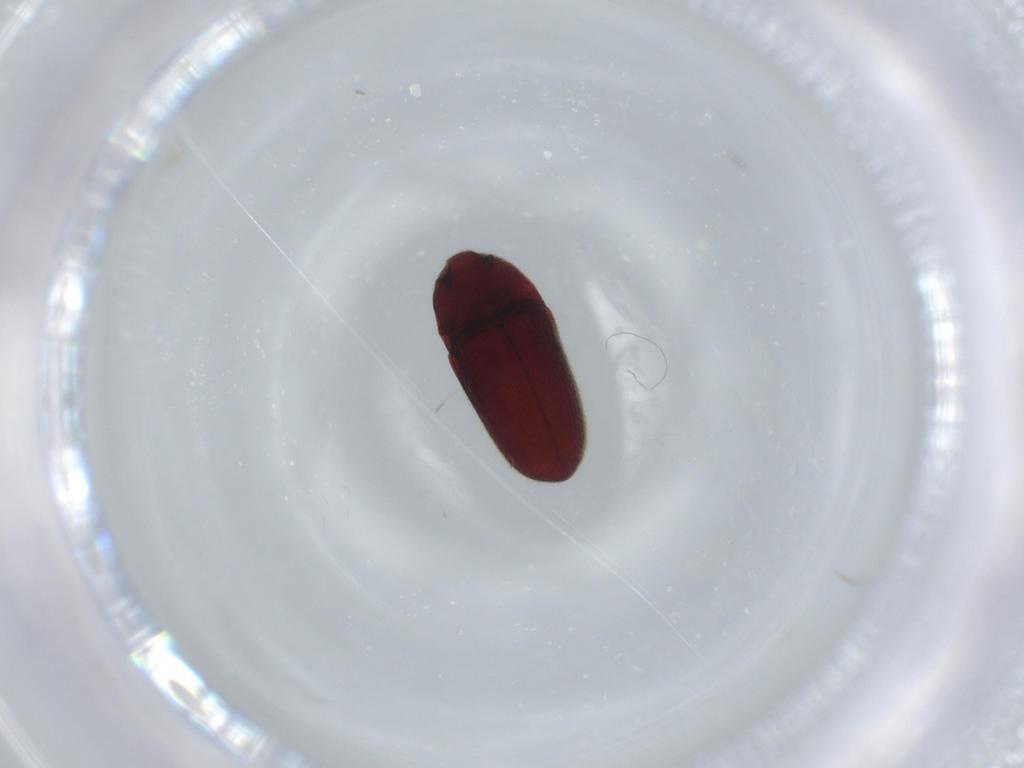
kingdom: Animalia
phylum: Arthropoda
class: Insecta
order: Coleoptera
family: Throscidae
